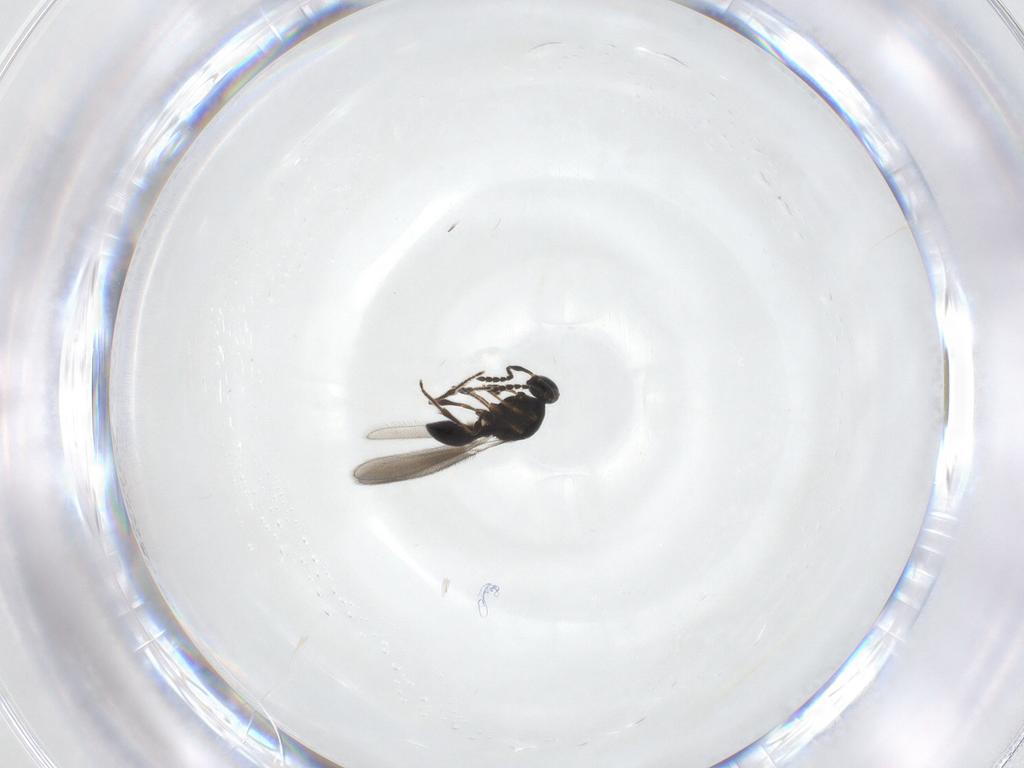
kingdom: Animalia
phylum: Arthropoda
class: Insecta
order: Hymenoptera
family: Platygastridae
